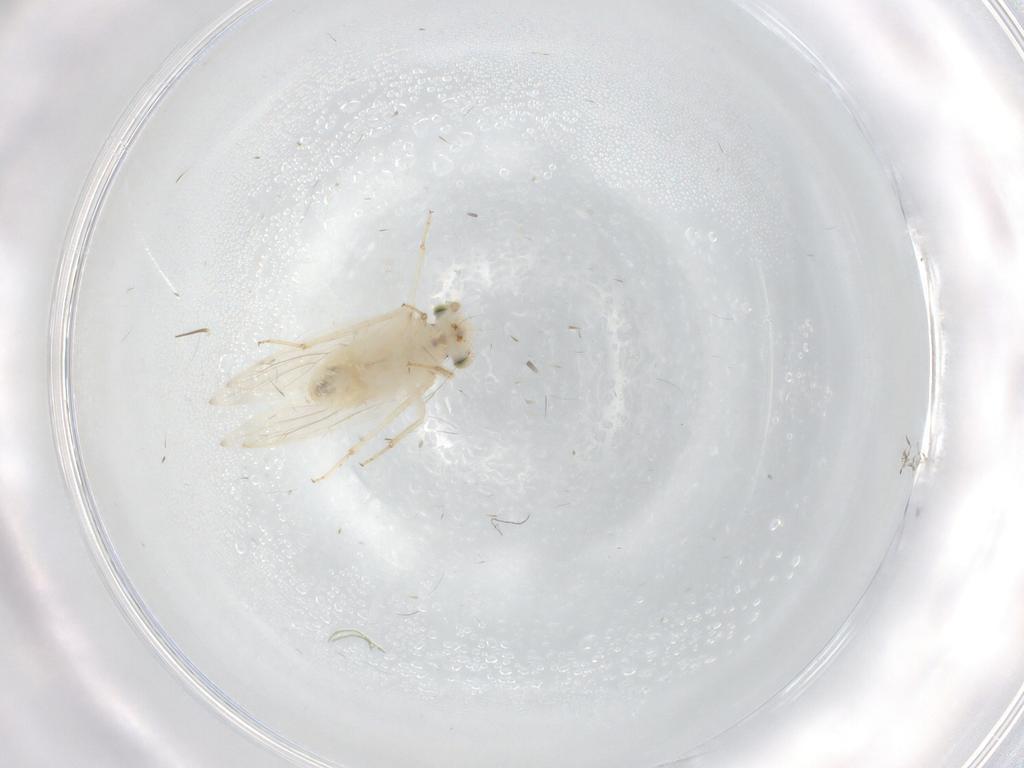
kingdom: Animalia
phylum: Arthropoda
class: Insecta
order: Psocodea
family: Lepidopsocidae
